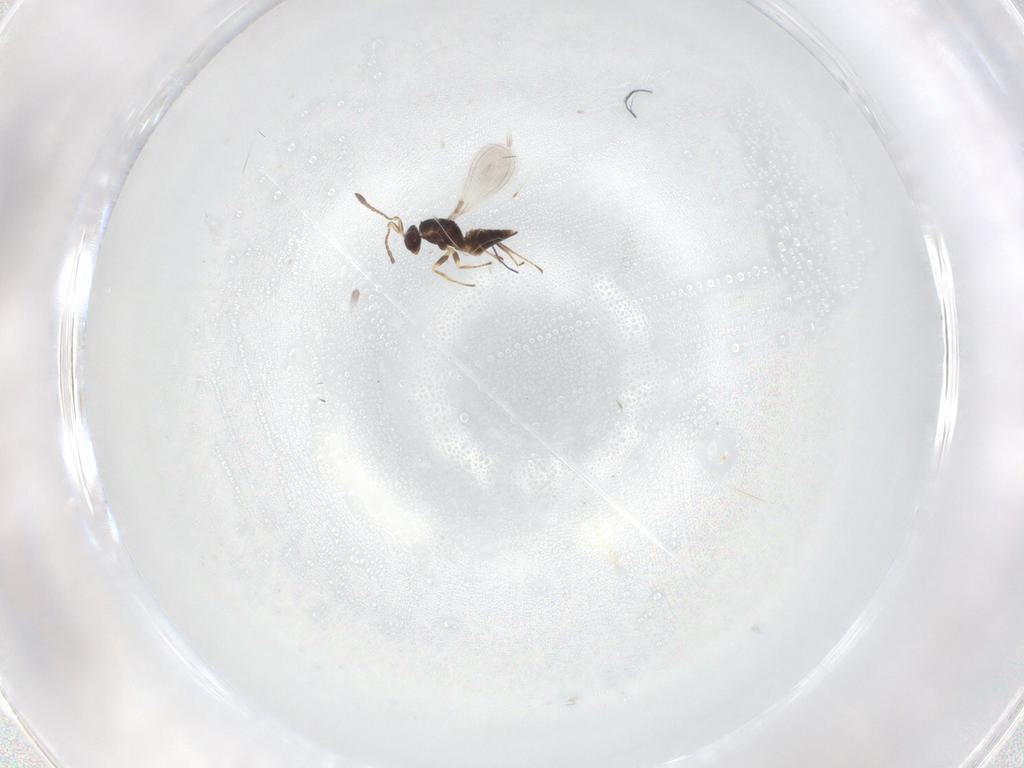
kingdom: Animalia
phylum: Arthropoda
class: Insecta
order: Hymenoptera
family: Mymaridae
